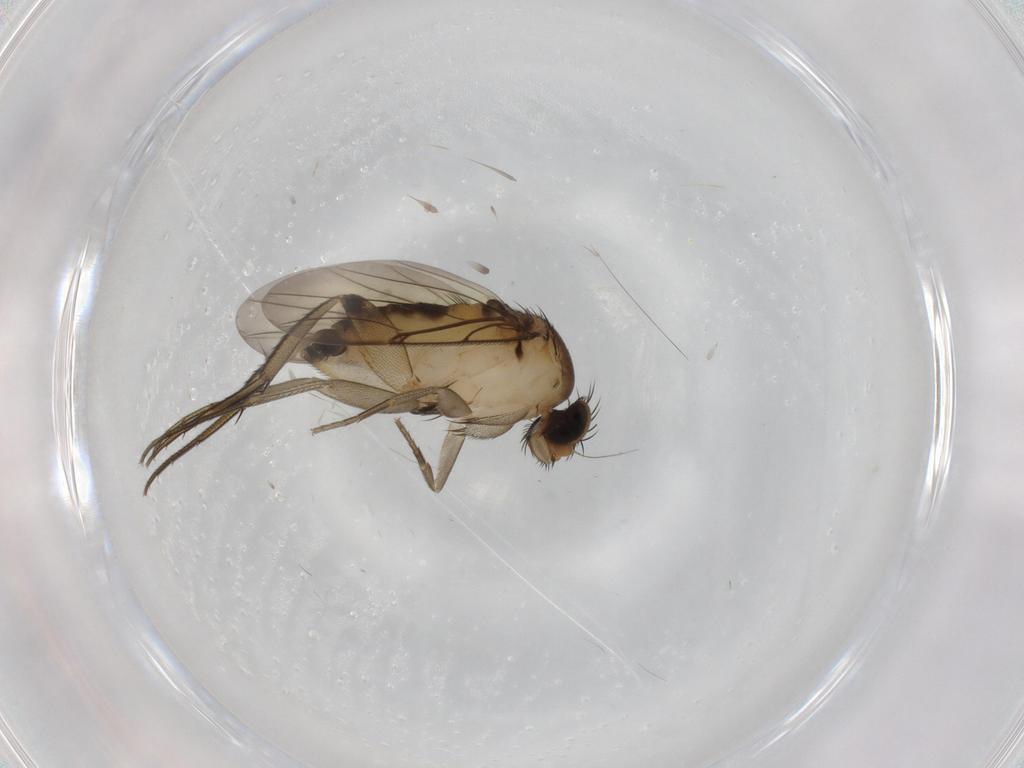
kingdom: Animalia
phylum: Arthropoda
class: Insecta
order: Diptera
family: Phoridae
